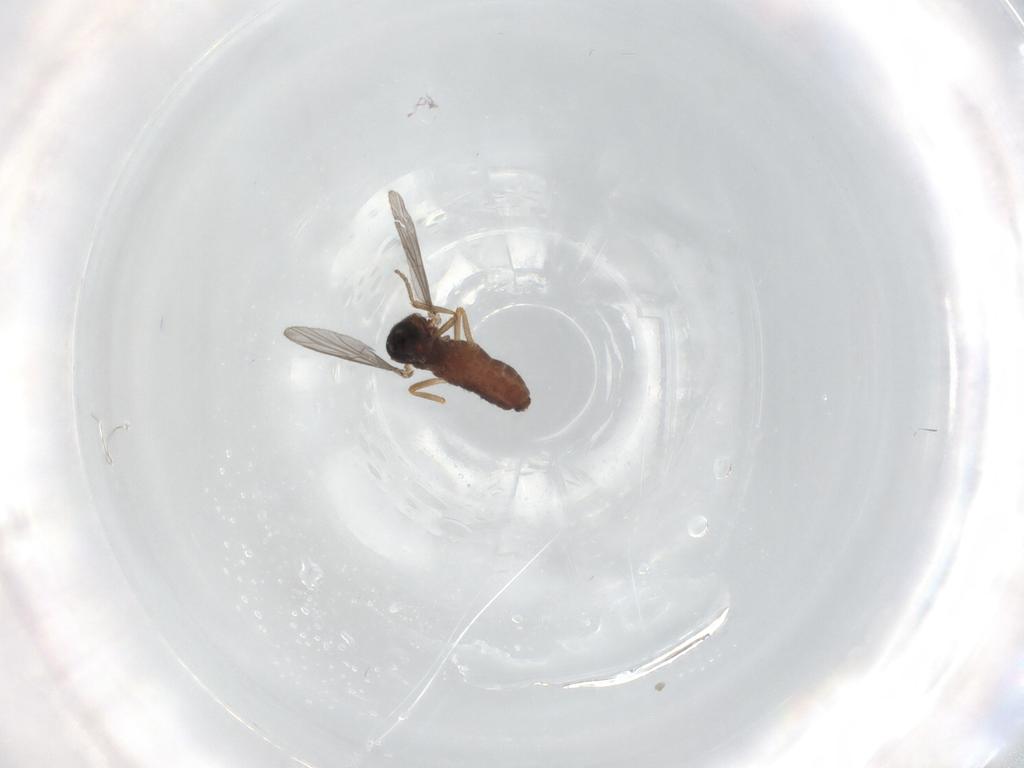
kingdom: Animalia
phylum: Arthropoda
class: Insecta
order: Diptera
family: Ceratopogonidae
